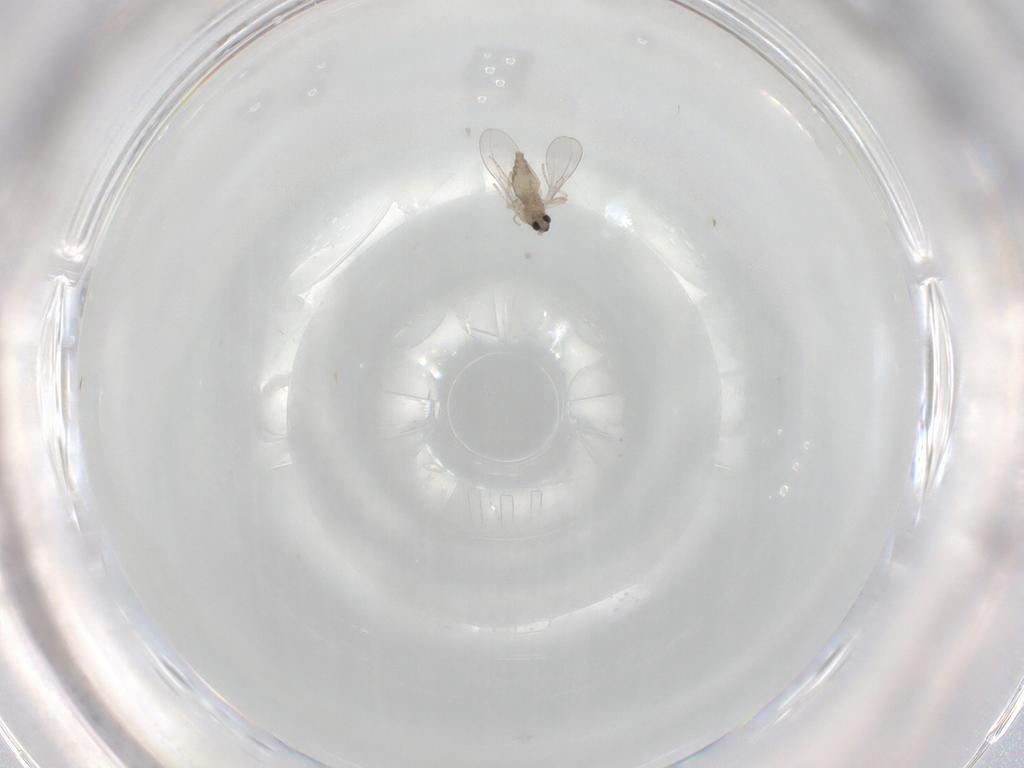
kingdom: Animalia
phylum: Arthropoda
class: Insecta
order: Diptera
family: Cecidomyiidae
